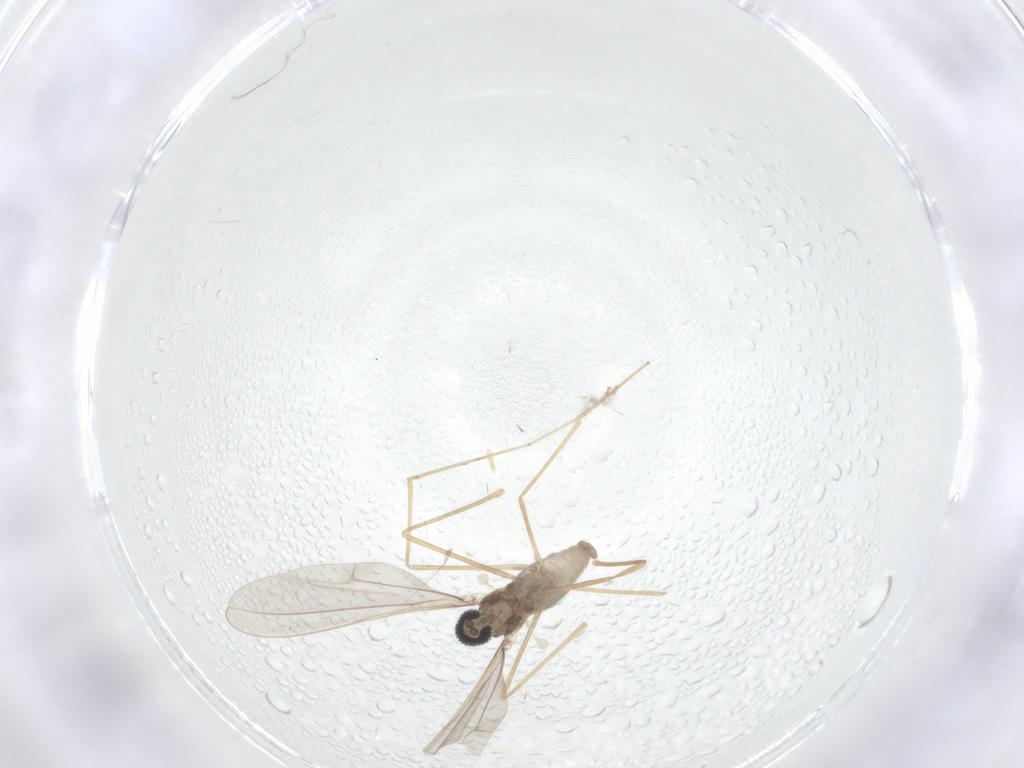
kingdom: Animalia
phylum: Arthropoda
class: Insecta
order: Diptera
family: Cecidomyiidae
